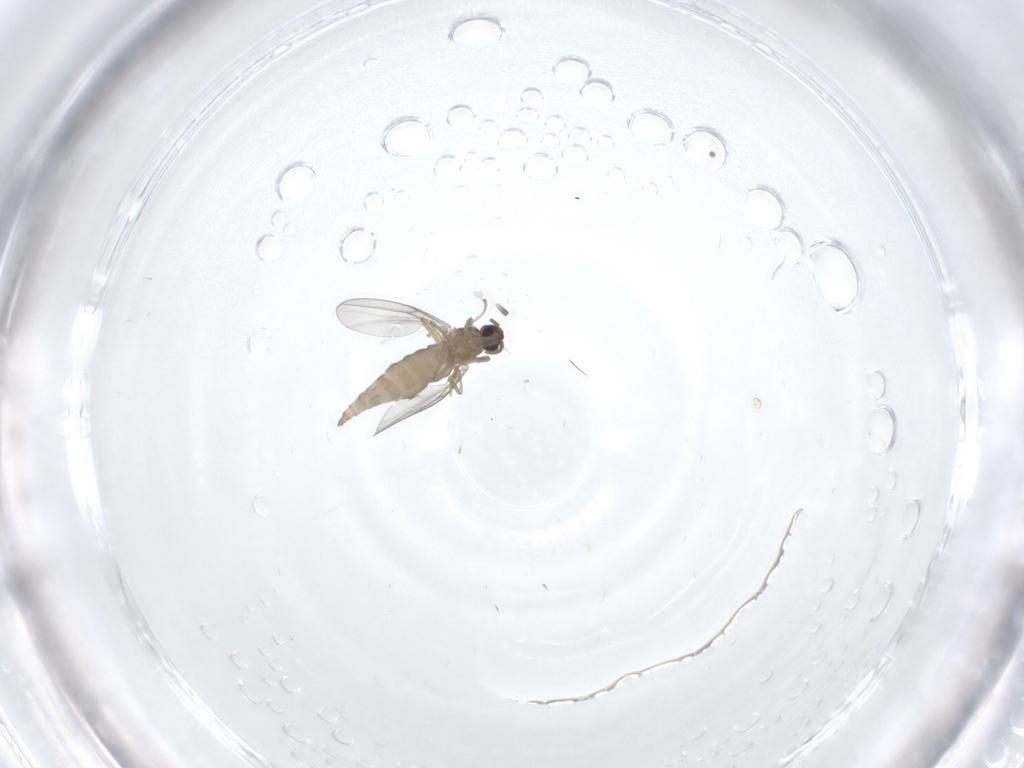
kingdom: Animalia
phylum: Arthropoda
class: Insecta
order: Diptera
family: Cecidomyiidae
